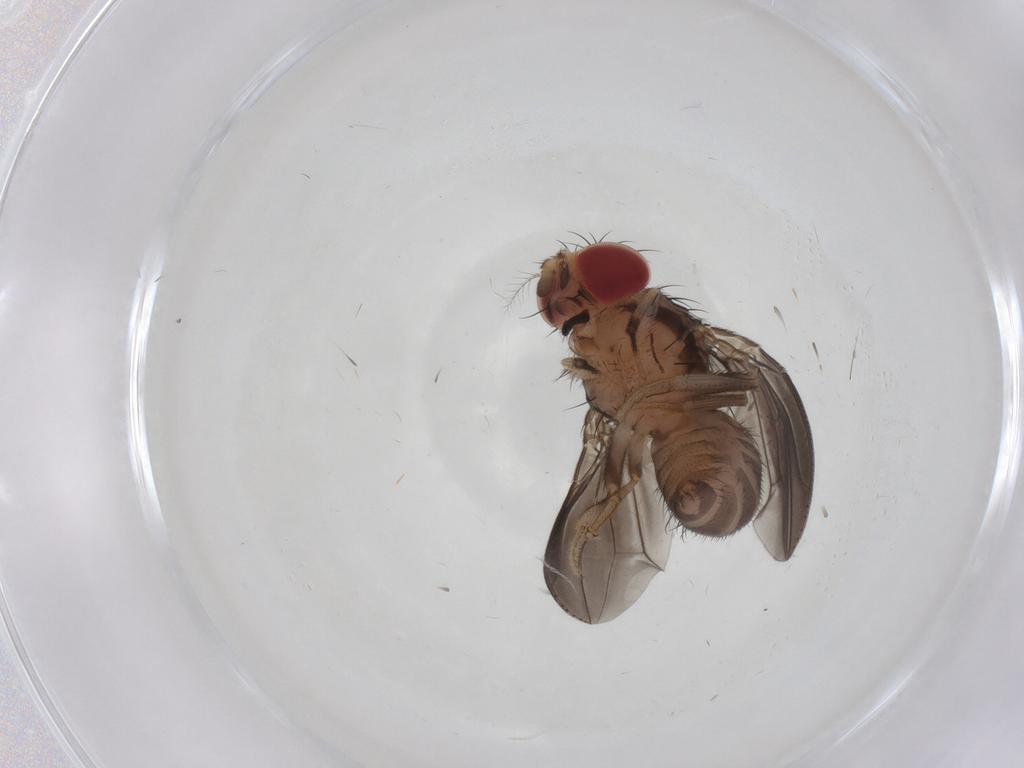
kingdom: Animalia
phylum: Arthropoda
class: Insecta
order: Diptera
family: Cecidomyiidae
